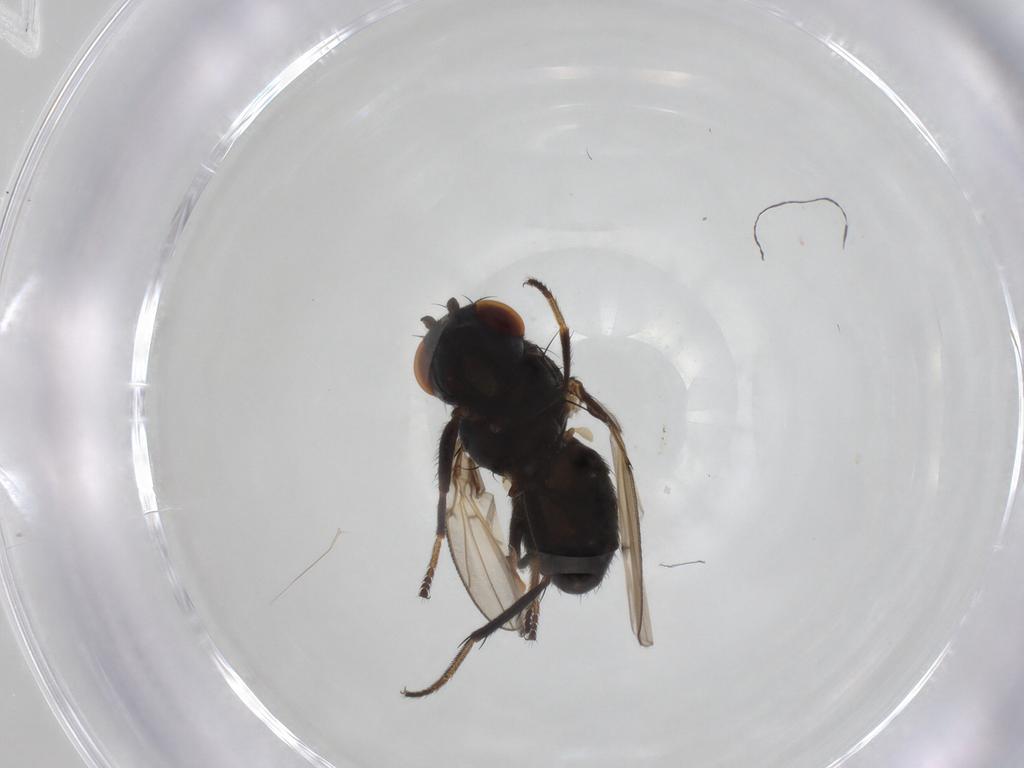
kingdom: Animalia
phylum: Arthropoda
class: Insecta
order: Diptera
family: Ephydridae
